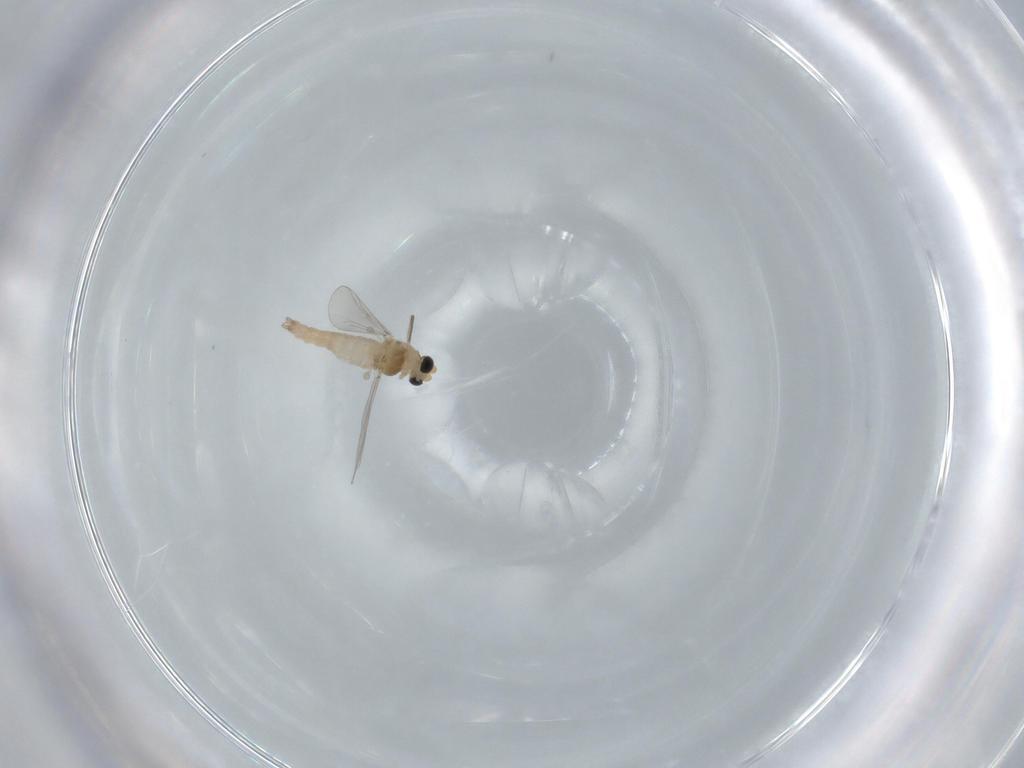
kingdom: Animalia
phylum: Arthropoda
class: Insecta
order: Diptera
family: Chironomidae
